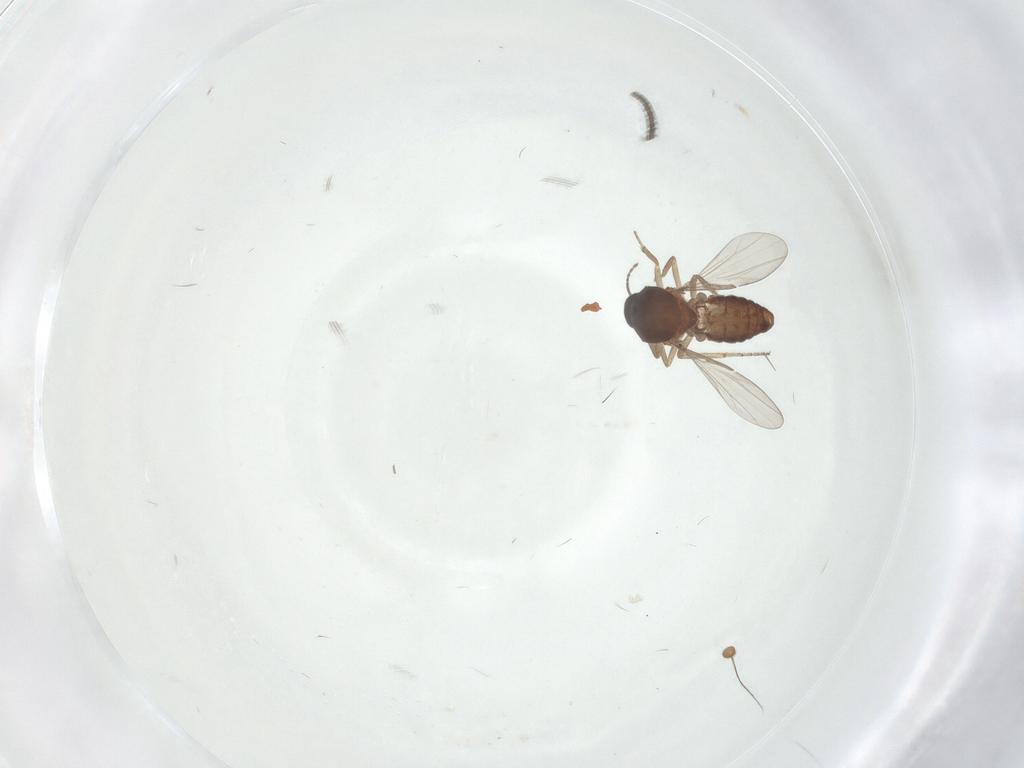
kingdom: Animalia
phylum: Arthropoda
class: Insecta
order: Diptera
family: Ceratopogonidae
